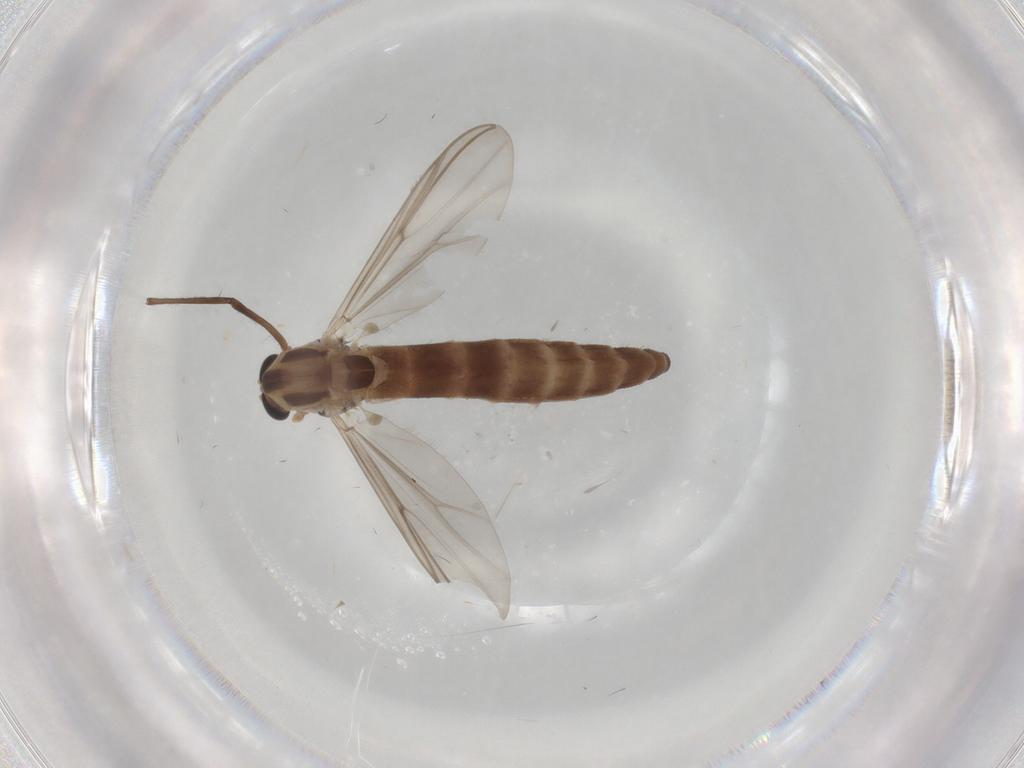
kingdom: Animalia
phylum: Arthropoda
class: Insecta
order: Diptera
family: Chironomidae
